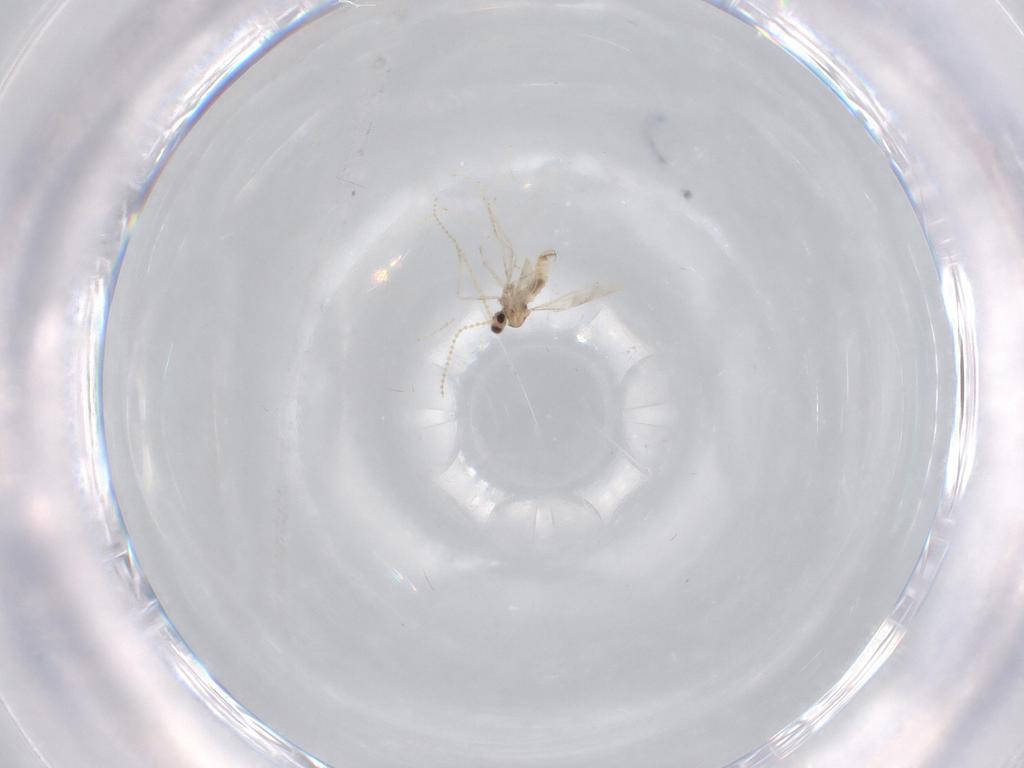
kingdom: Animalia
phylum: Arthropoda
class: Insecta
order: Diptera
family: Cecidomyiidae
